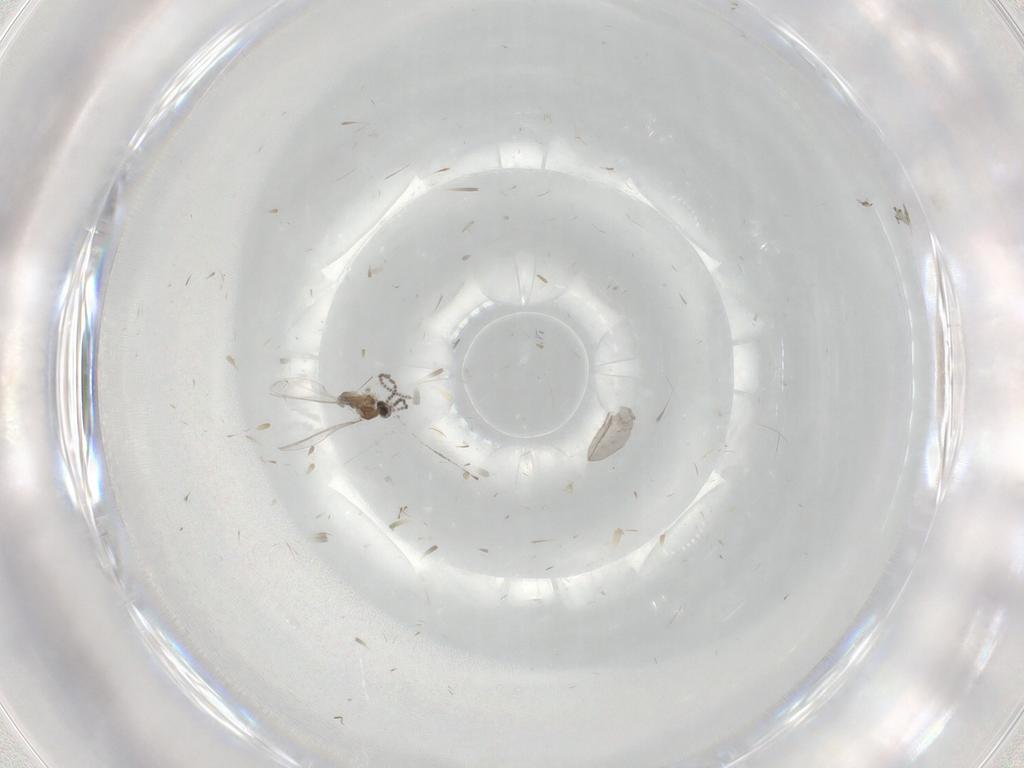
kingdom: Animalia
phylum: Arthropoda
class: Insecta
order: Diptera
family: Cecidomyiidae
